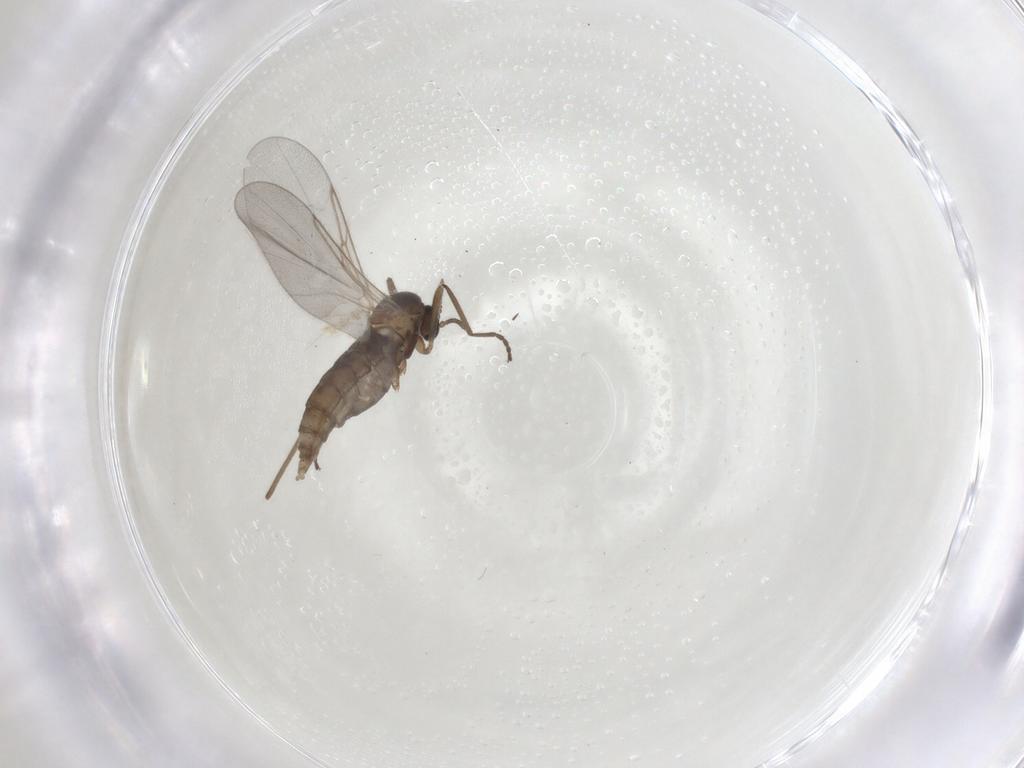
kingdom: Animalia
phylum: Arthropoda
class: Insecta
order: Diptera
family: Cecidomyiidae
